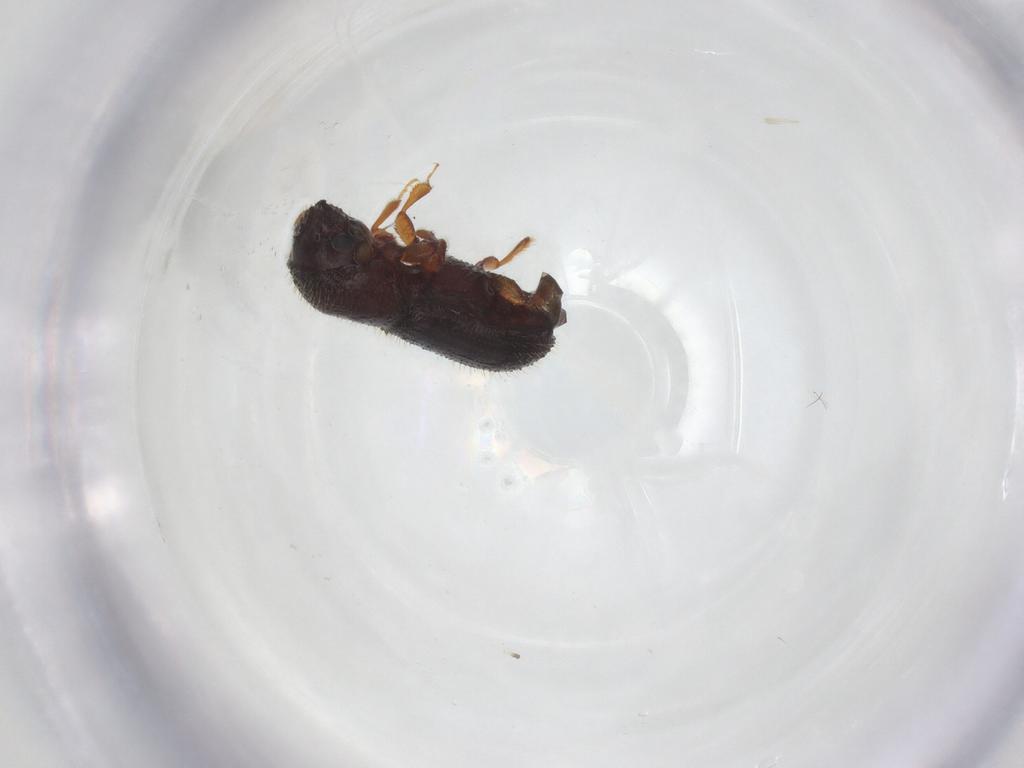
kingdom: Animalia
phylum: Arthropoda
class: Insecta
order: Coleoptera
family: Curculionidae
